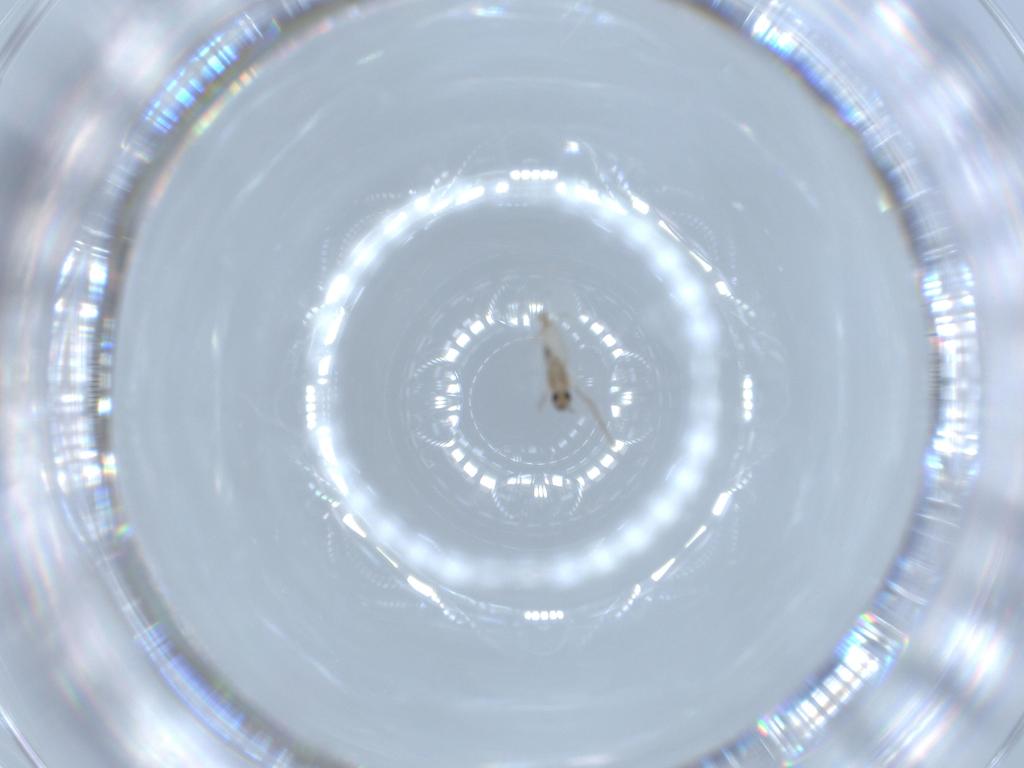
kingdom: Animalia
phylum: Arthropoda
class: Insecta
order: Diptera
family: Cecidomyiidae
